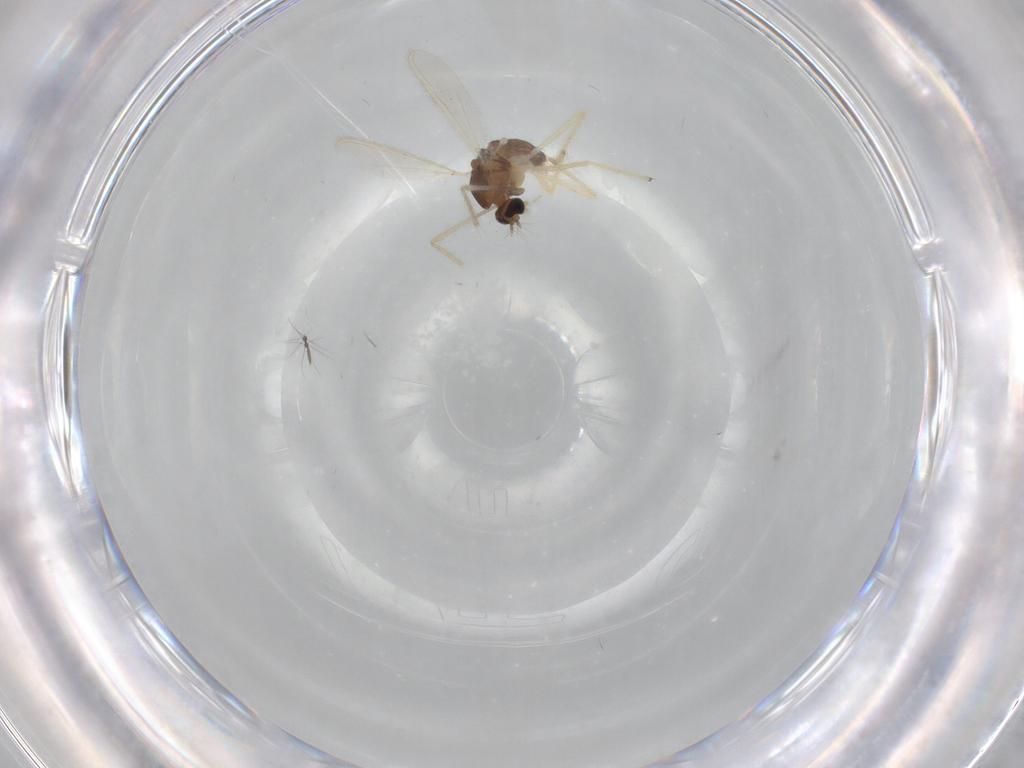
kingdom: Animalia
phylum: Arthropoda
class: Insecta
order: Diptera
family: Chironomidae
